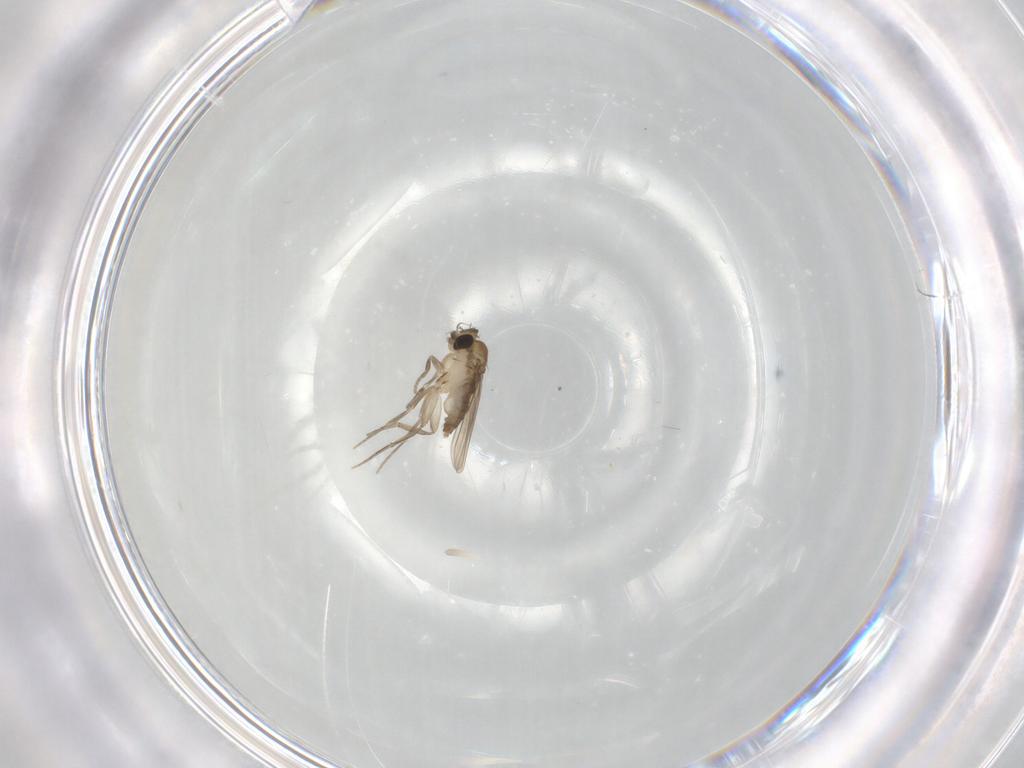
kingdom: Animalia
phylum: Arthropoda
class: Insecta
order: Diptera
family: Phoridae
